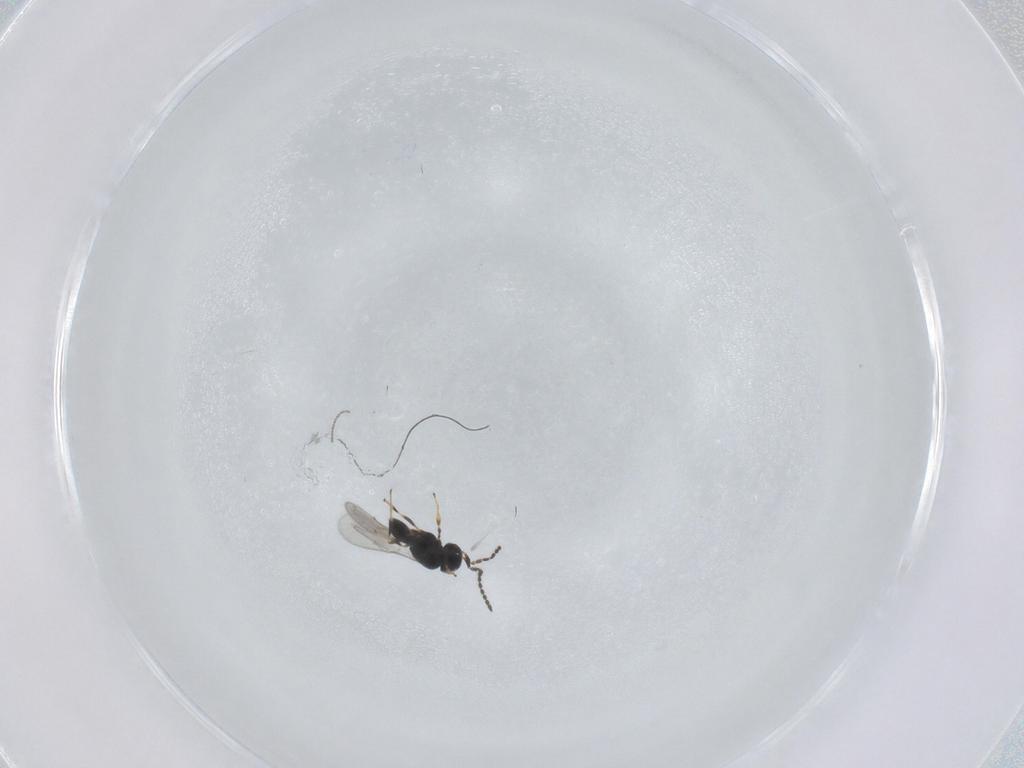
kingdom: Animalia
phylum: Arthropoda
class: Insecta
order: Hymenoptera
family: Scelionidae
